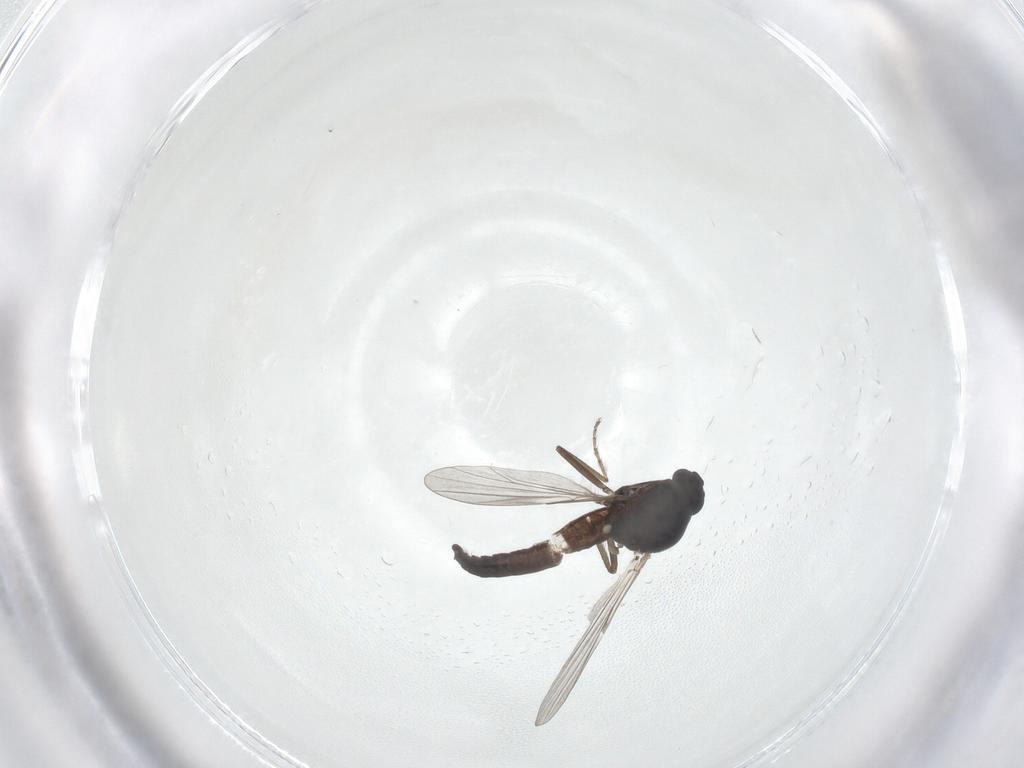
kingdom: Animalia
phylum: Arthropoda
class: Insecta
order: Diptera
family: Ceratopogonidae
